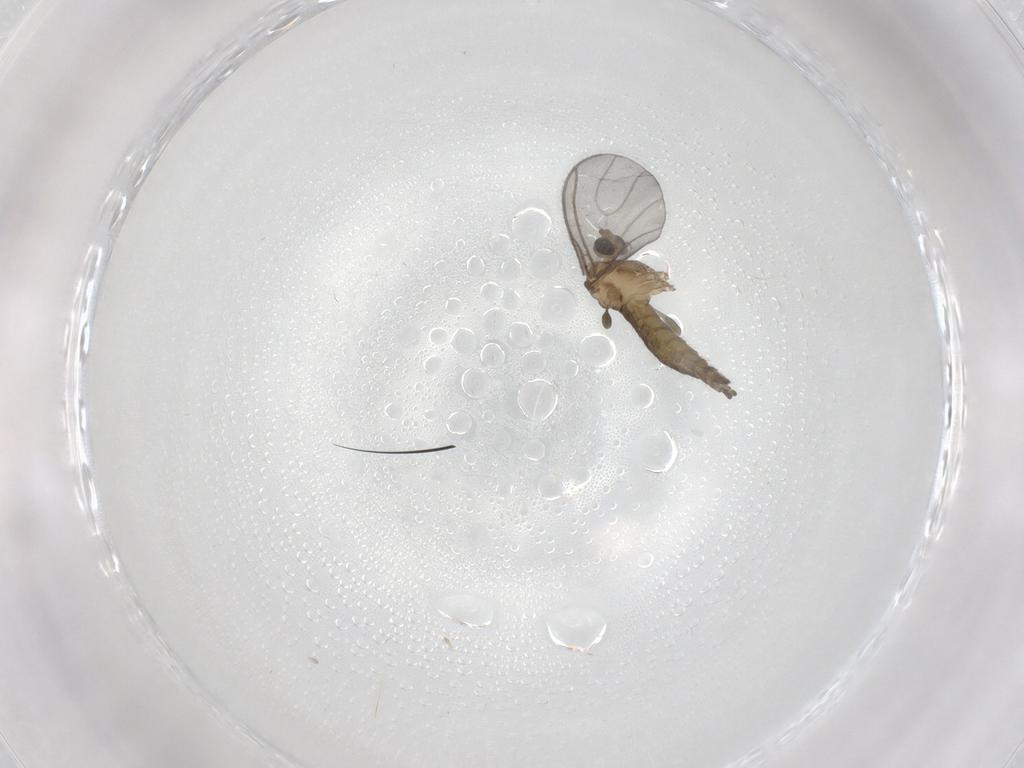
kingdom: Animalia
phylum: Arthropoda
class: Insecta
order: Diptera
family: Sciaridae
